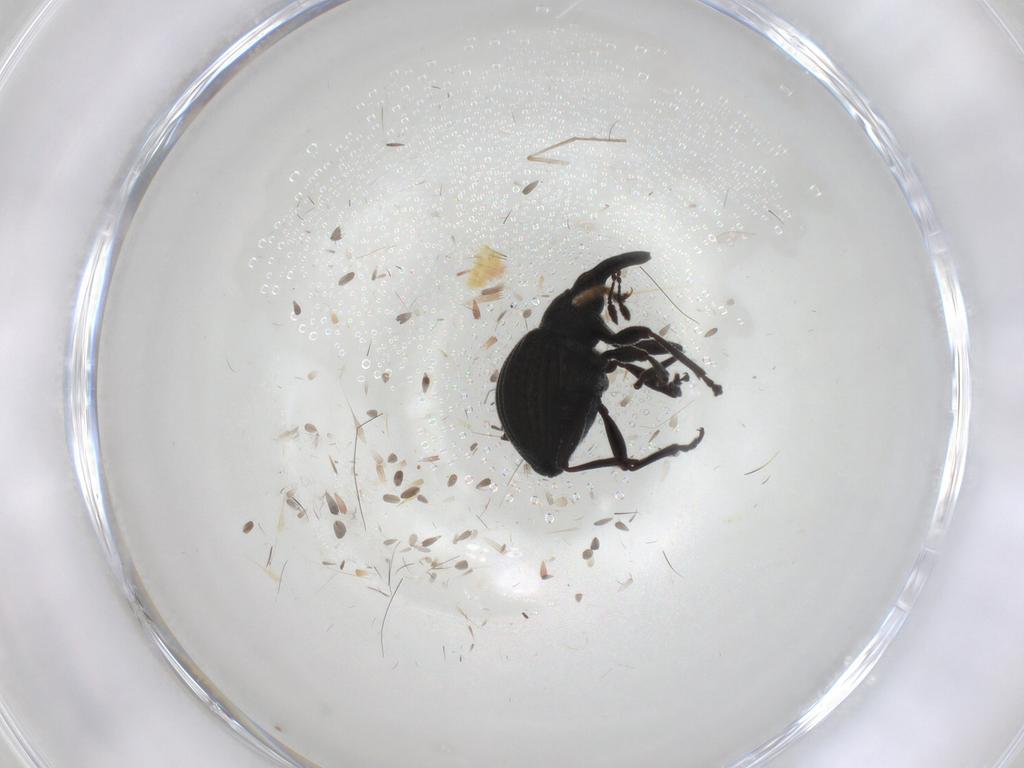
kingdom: Animalia
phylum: Arthropoda
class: Insecta
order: Coleoptera
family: Brentidae
